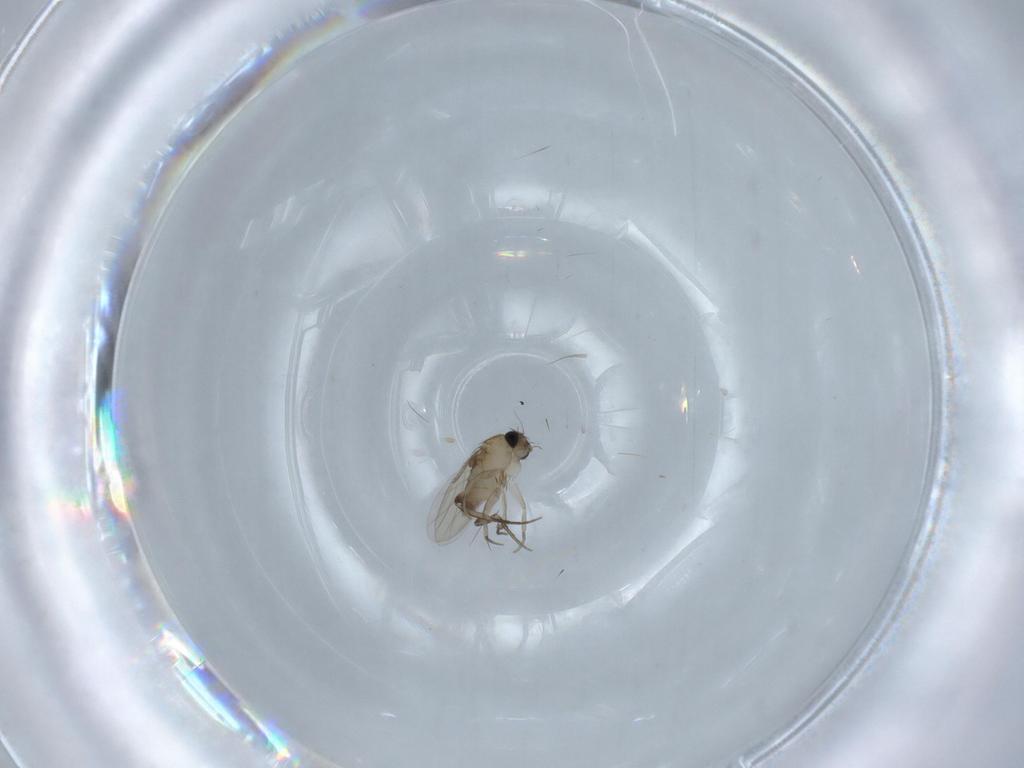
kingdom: Animalia
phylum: Arthropoda
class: Insecta
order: Diptera
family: Phoridae
